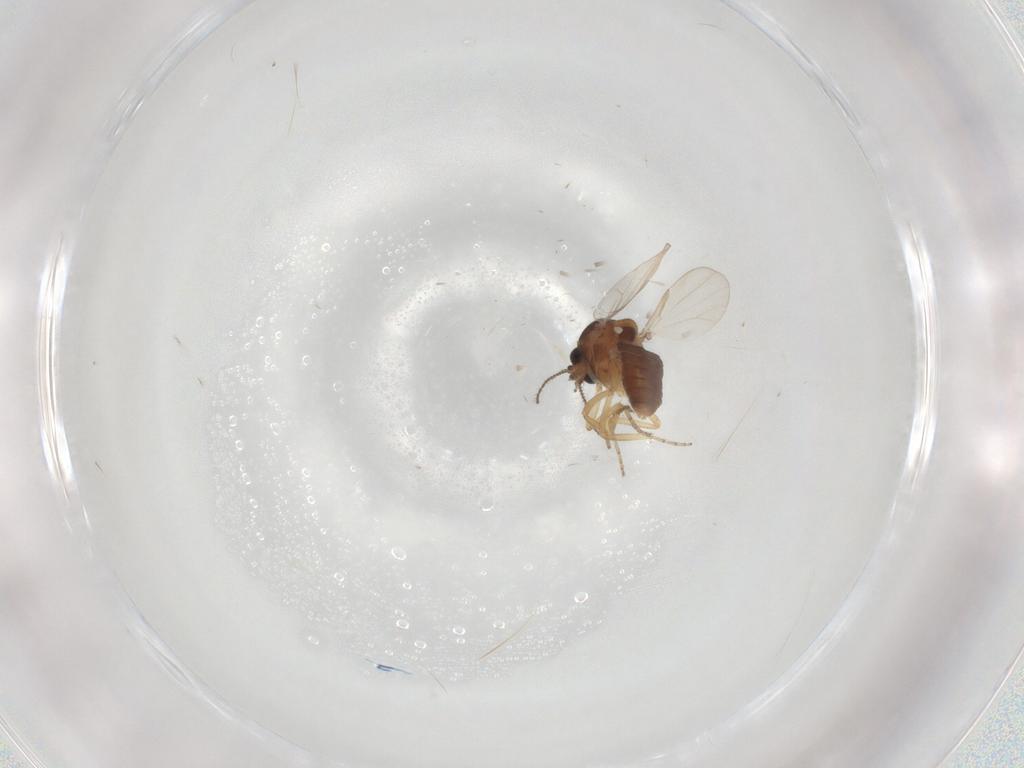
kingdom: Animalia
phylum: Arthropoda
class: Insecta
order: Diptera
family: Ceratopogonidae
